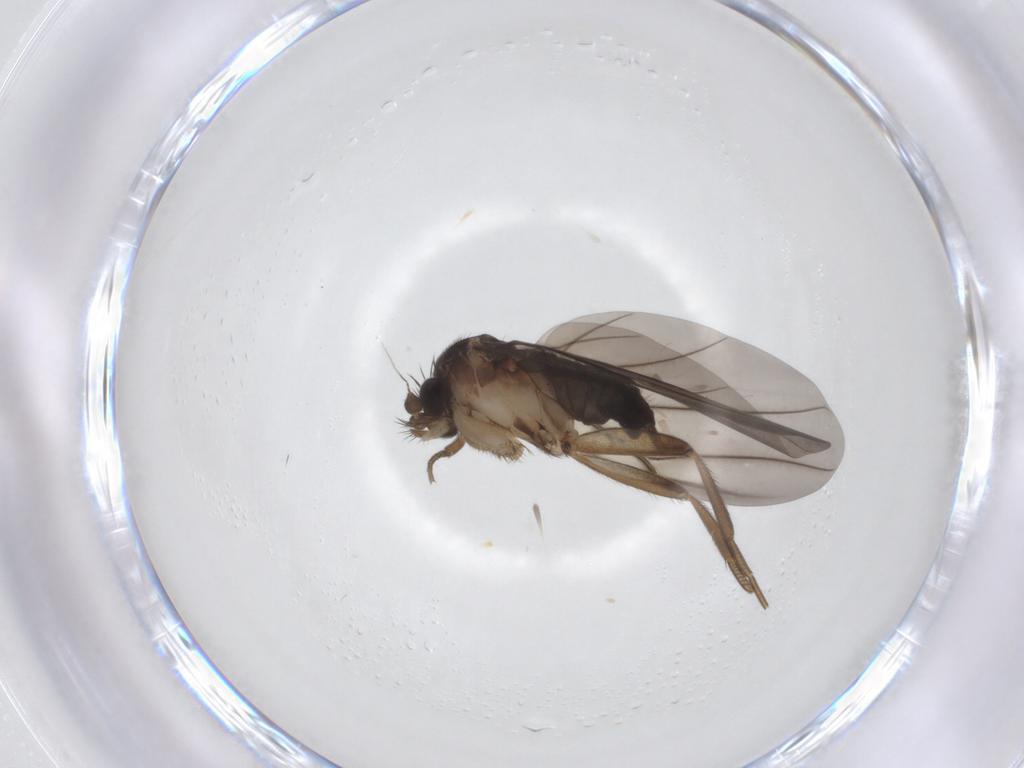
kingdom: Animalia
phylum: Arthropoda
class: Insecta
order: Diptera
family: Phoridae
